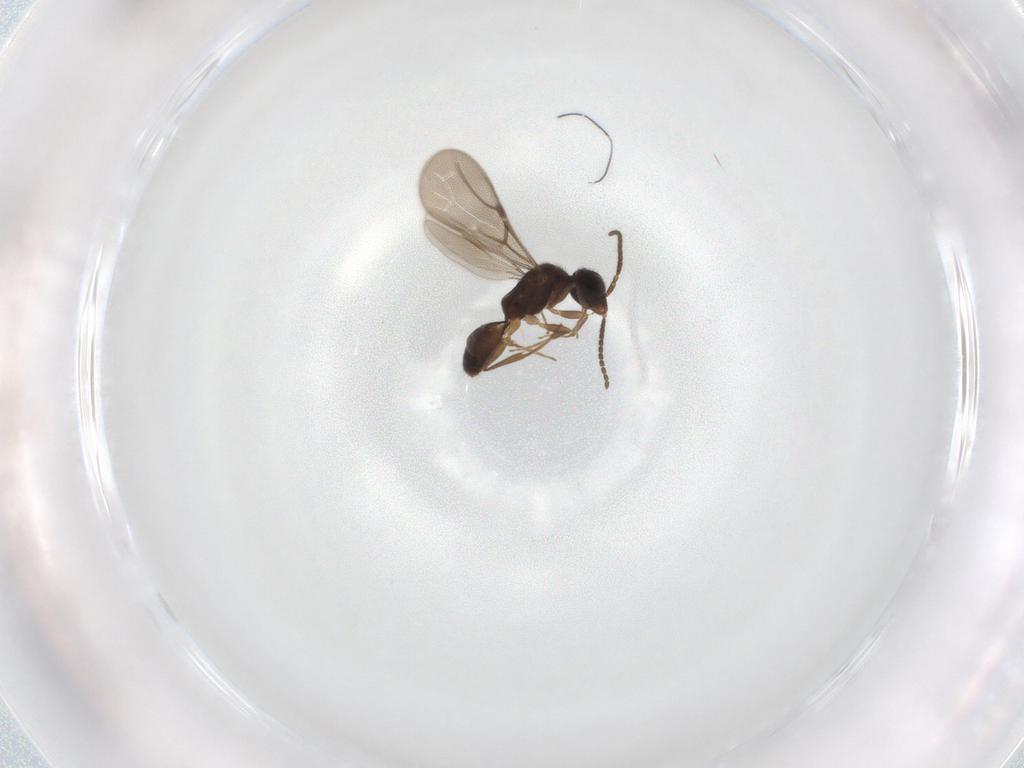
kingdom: Animalia
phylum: Arthropoda
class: Insecta
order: Hymenoptera
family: Bethylidae
